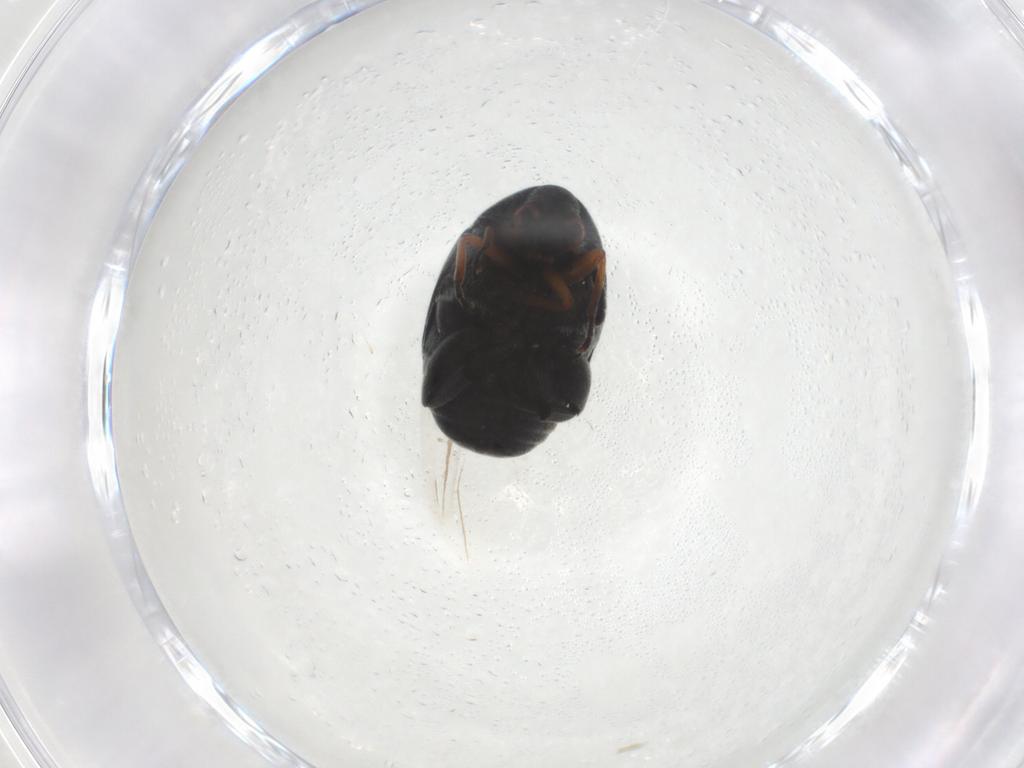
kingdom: Animalia
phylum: Arthropoda
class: Insecta
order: Coleoptera
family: Chrysomelidae
